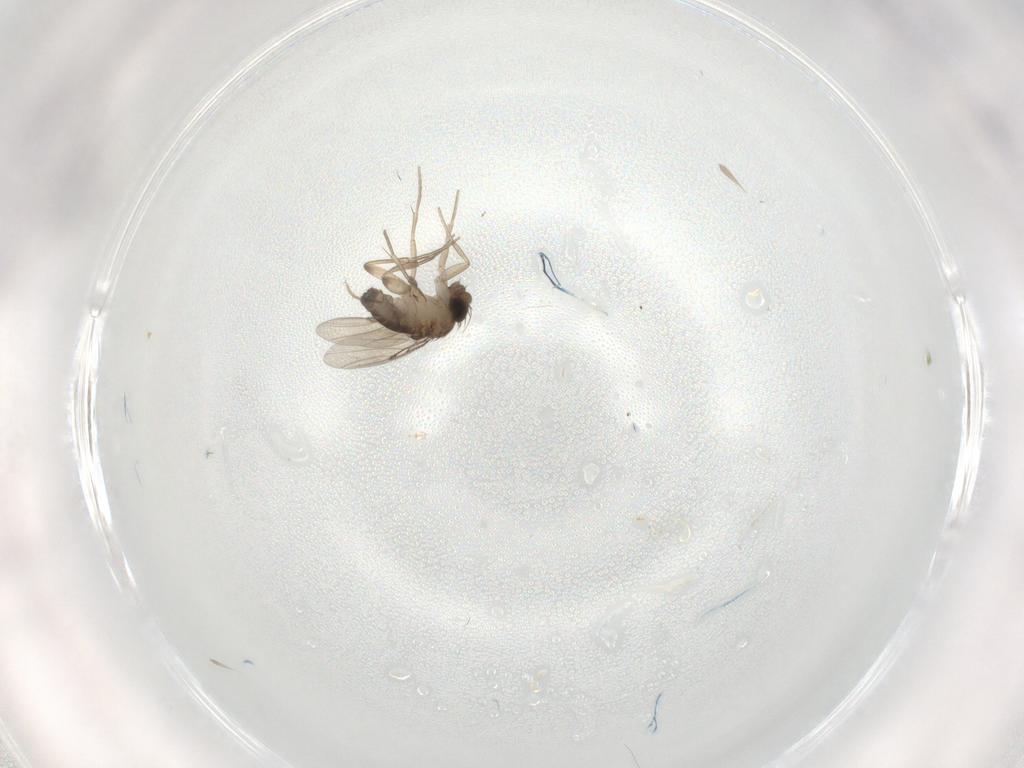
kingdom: Animalia
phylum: Arthropoda
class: Insecta
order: Diptera
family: Phoridae
